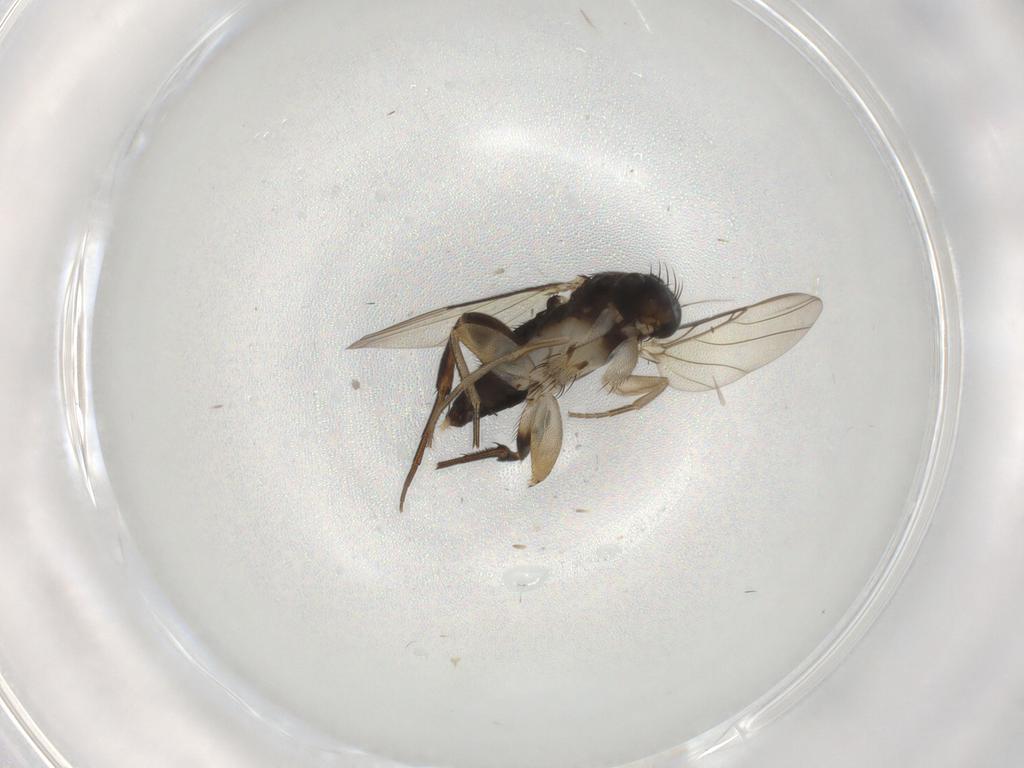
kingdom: Animalia
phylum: Arthropoda
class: Insecta
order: Diptera
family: Phoridae
